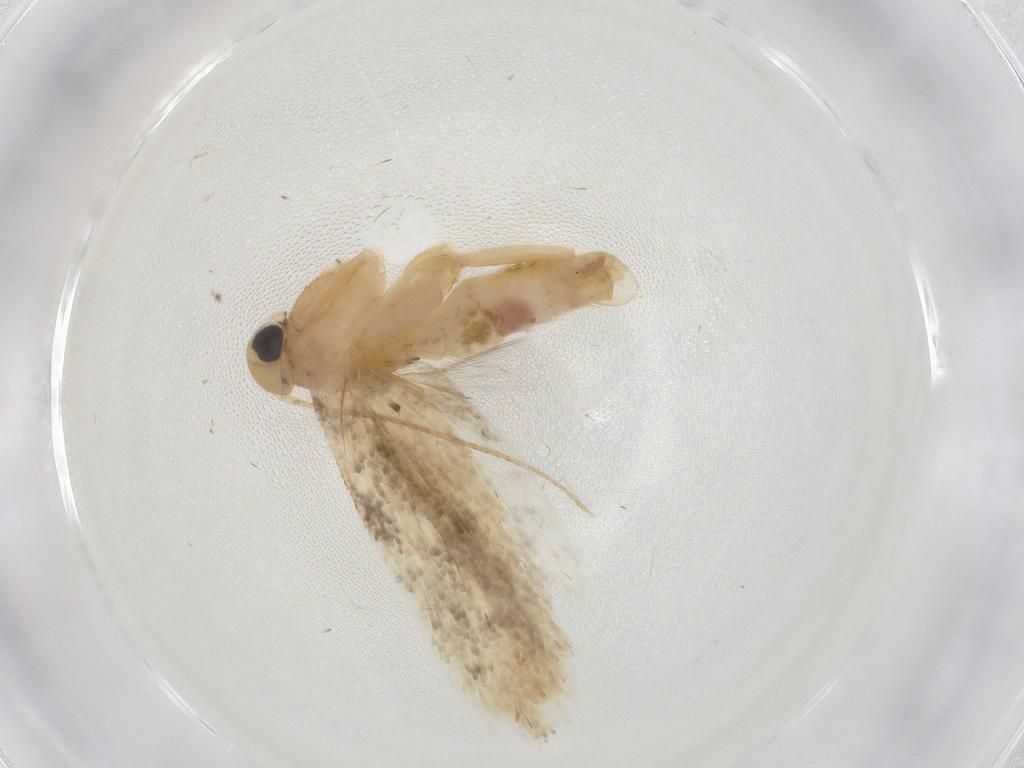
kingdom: Animalia
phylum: Arthropoda
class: Insecta
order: Lepidoptera
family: Gelechiidae
